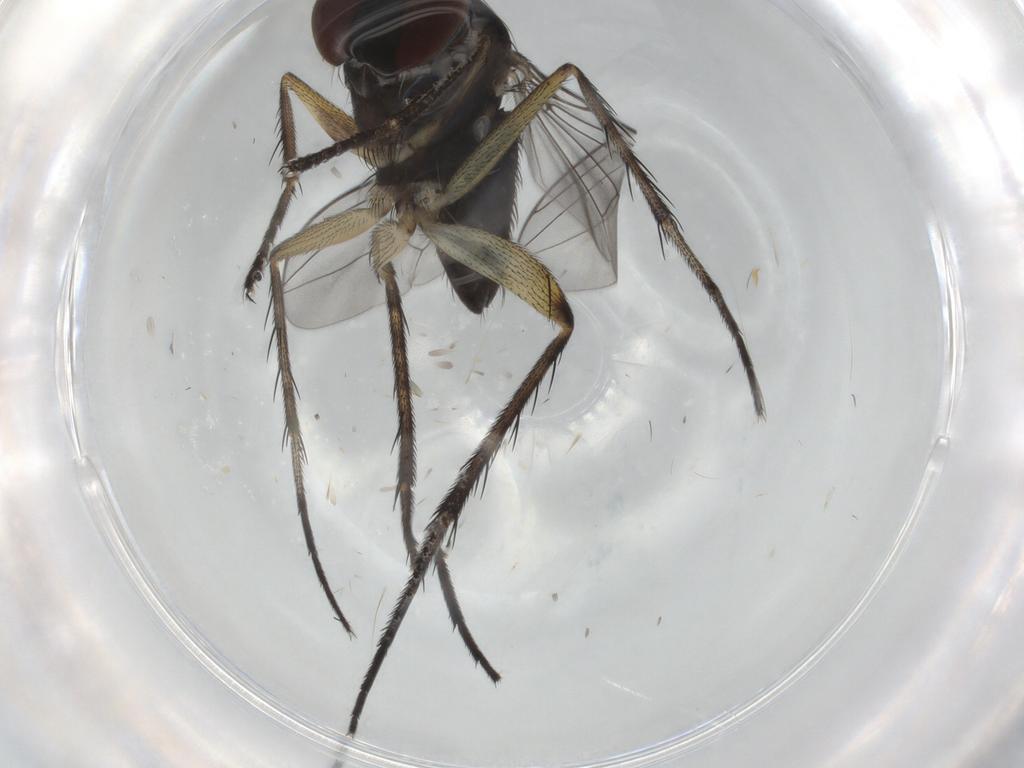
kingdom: Animalia
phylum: Arthropoda
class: Insecta
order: Diptera
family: Dolichopodidae
